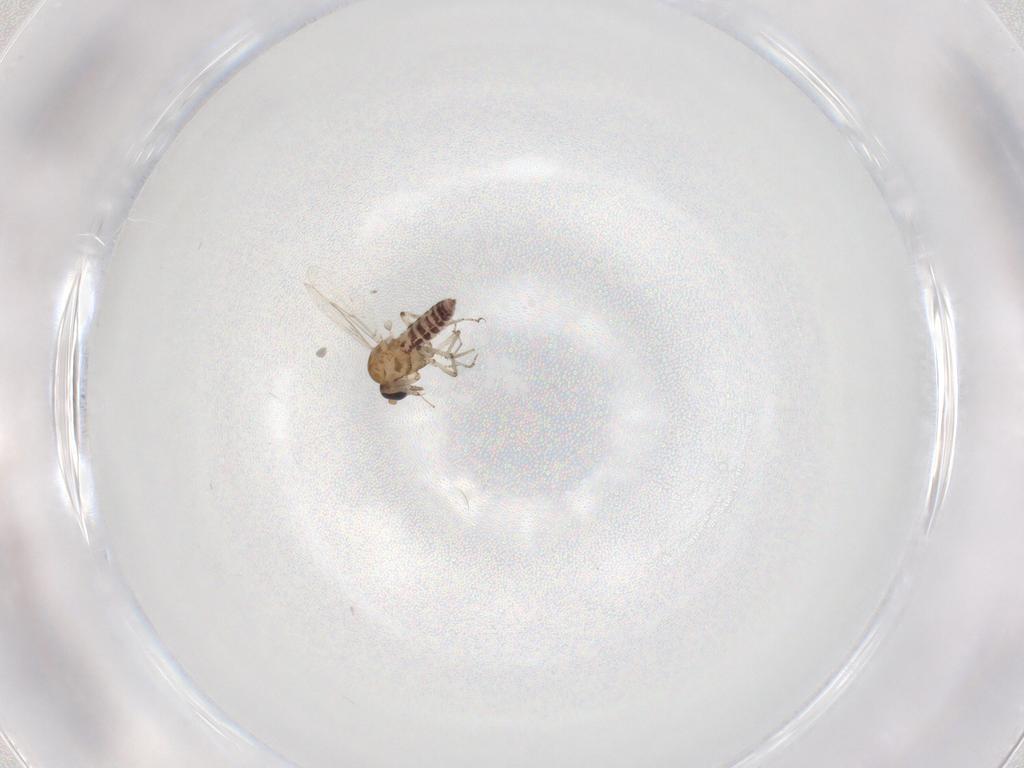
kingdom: Animalia
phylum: Arthropoda
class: Insecta
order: Diptera
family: Ceratopogonidae
